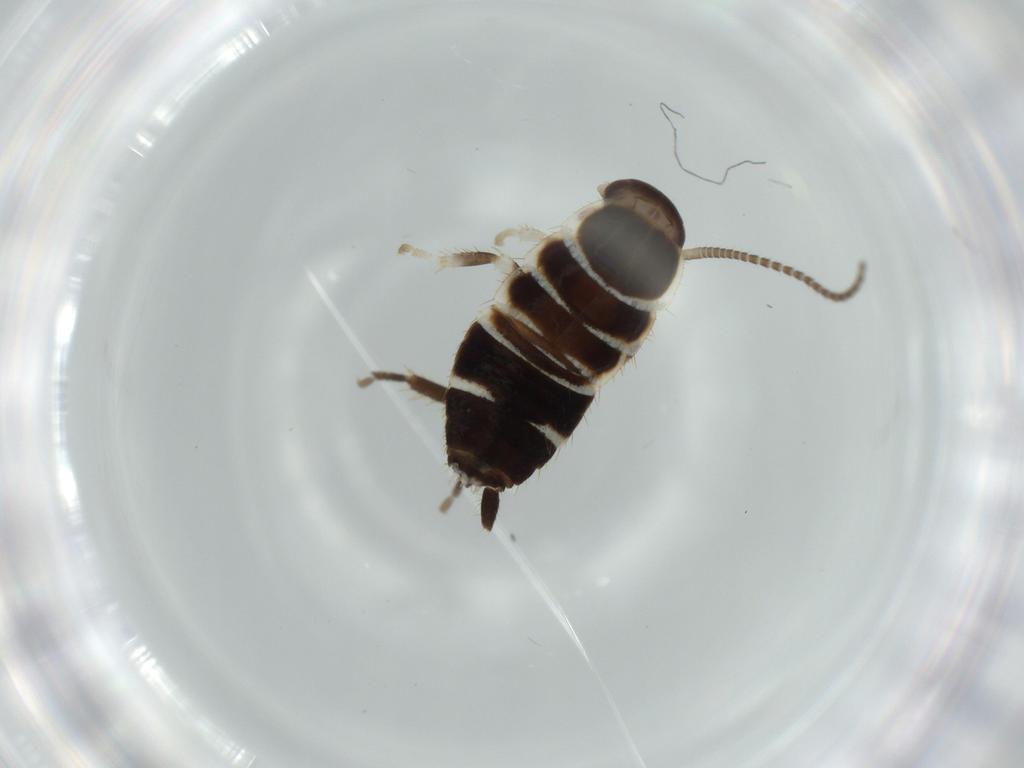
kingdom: Animalia
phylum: Arthropoda
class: Insecta
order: Blattodea
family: Ectobiidae
